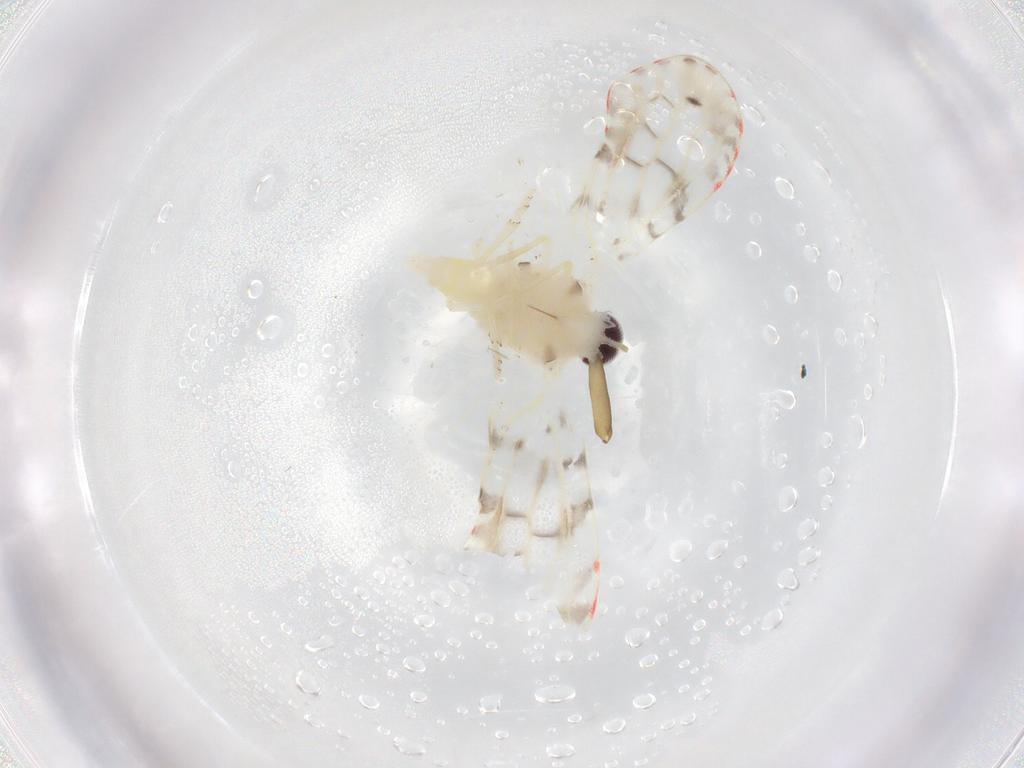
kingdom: Animalia
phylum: Arthropoda
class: Insecta
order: Hemiptera
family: Derbidae
